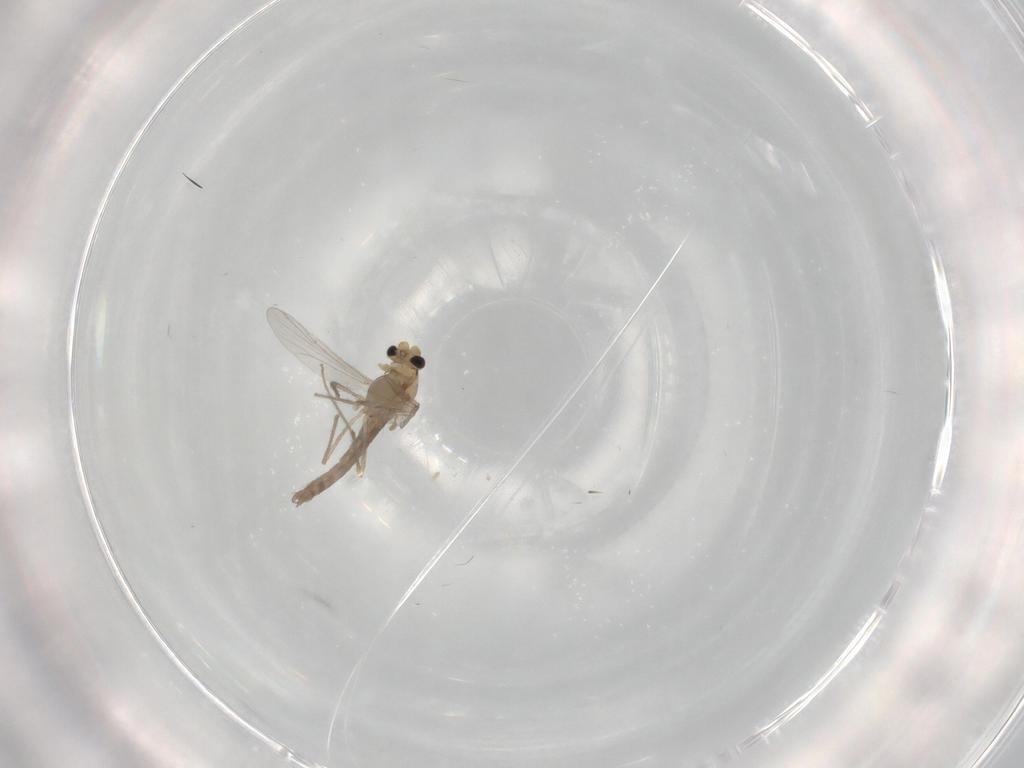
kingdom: Animalia
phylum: Arthropoda
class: Insecta
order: Diptera
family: Chironomidae
